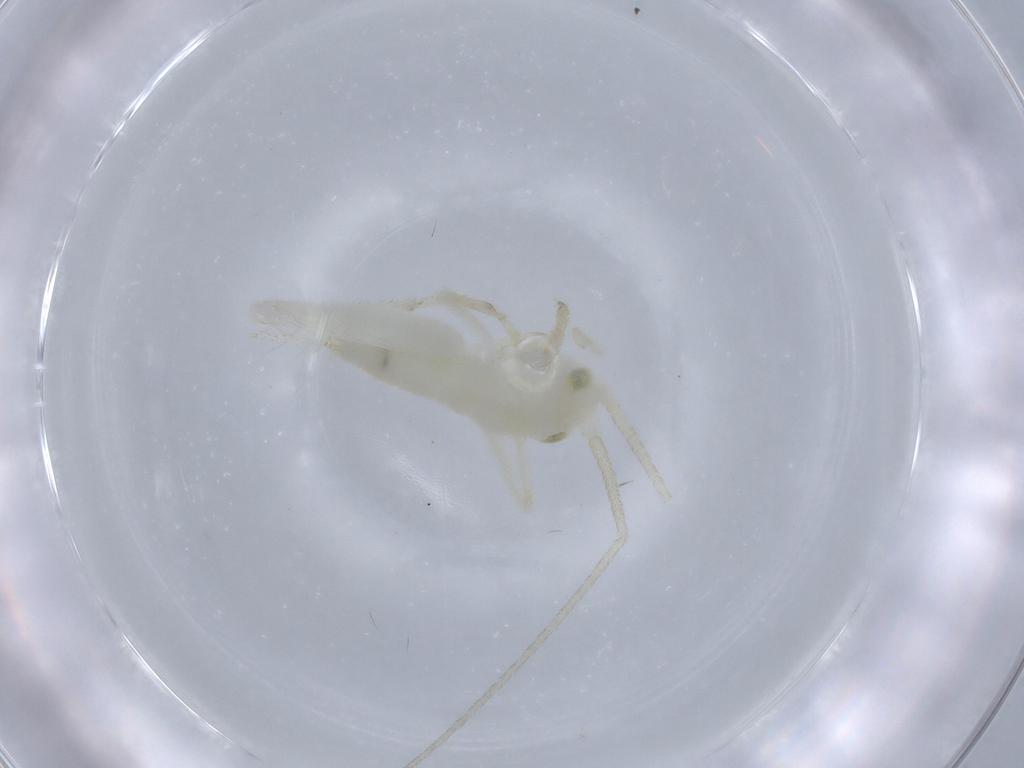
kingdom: Animalia
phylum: Arthropoda
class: Insecta
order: Orthoptera
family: Trigonidiidae
